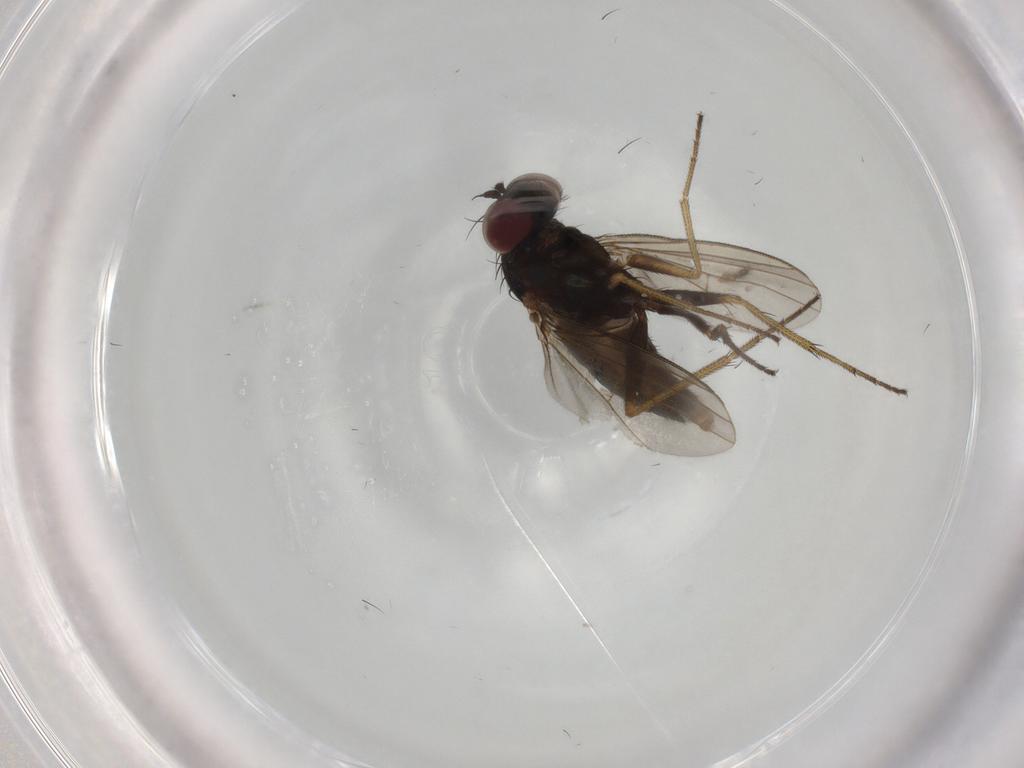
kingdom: Animalia
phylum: Arthropoda
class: Insecta
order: Diptera
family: Dolichopodidae
